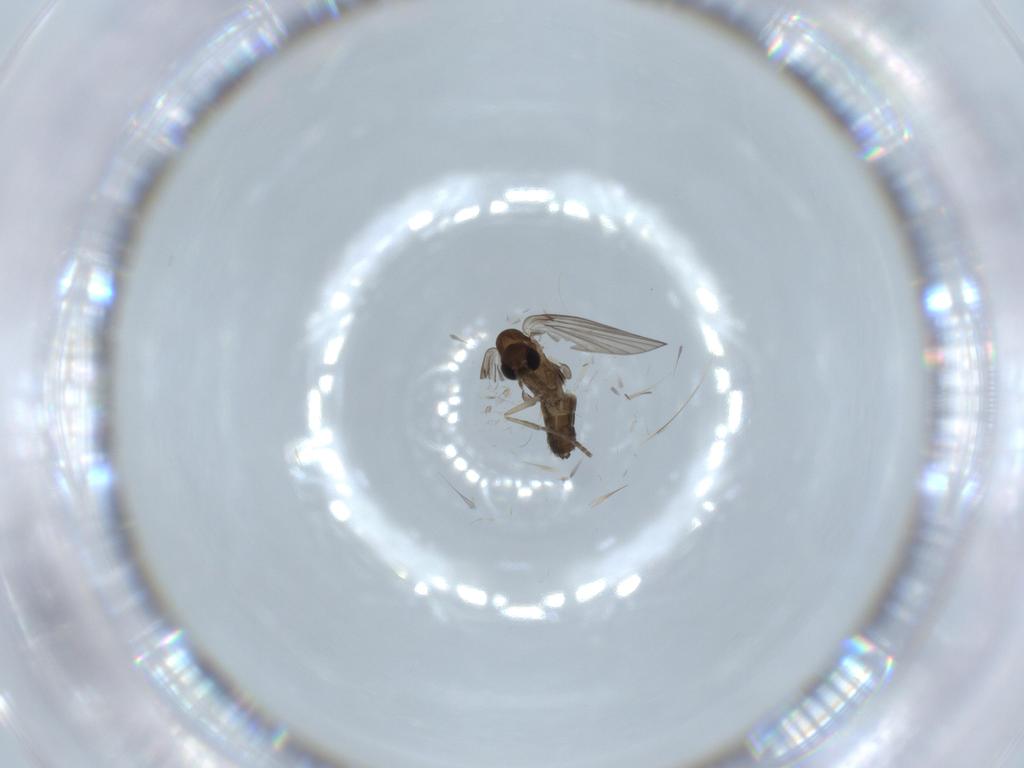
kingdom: Animalia
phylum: Arthropoda
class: Insecta
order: Diptera
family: Psychodidae
